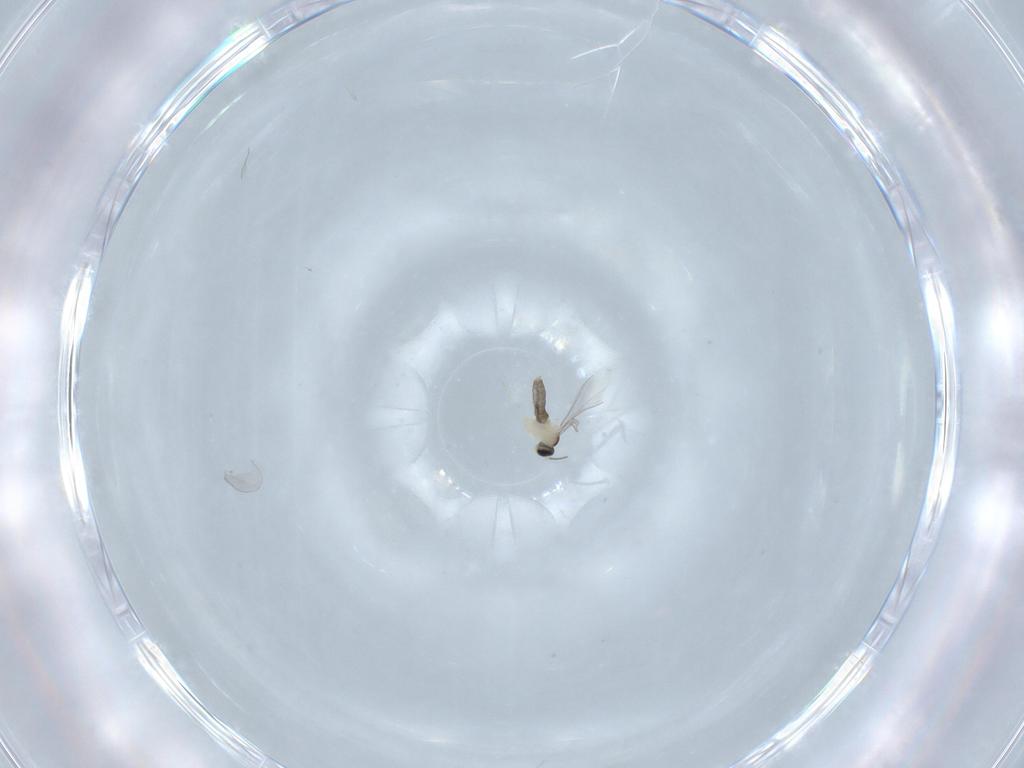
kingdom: Animalia
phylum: Arthropoda
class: Insecta
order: Diptera
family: Cecidomyiidae
